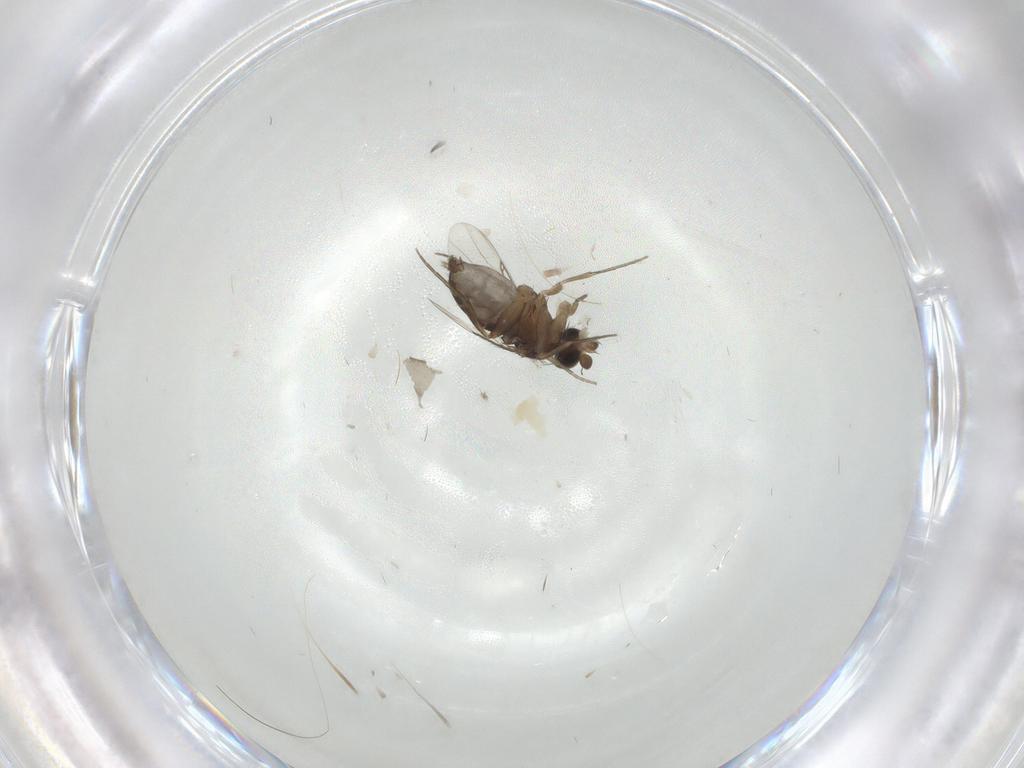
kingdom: Animalia
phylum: Arthropoda
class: Insecta
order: Diptera
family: Phoridae
